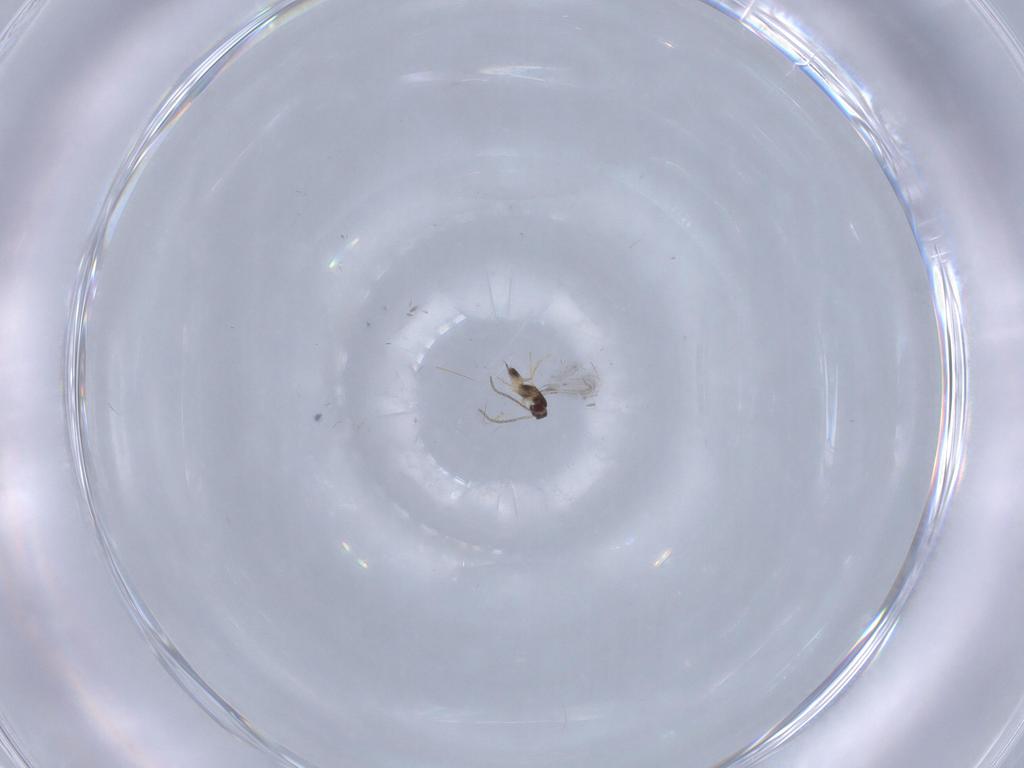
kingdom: Animalia
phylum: Arthropoda
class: Insecta
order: Hymenoptera
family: Mymaridae
